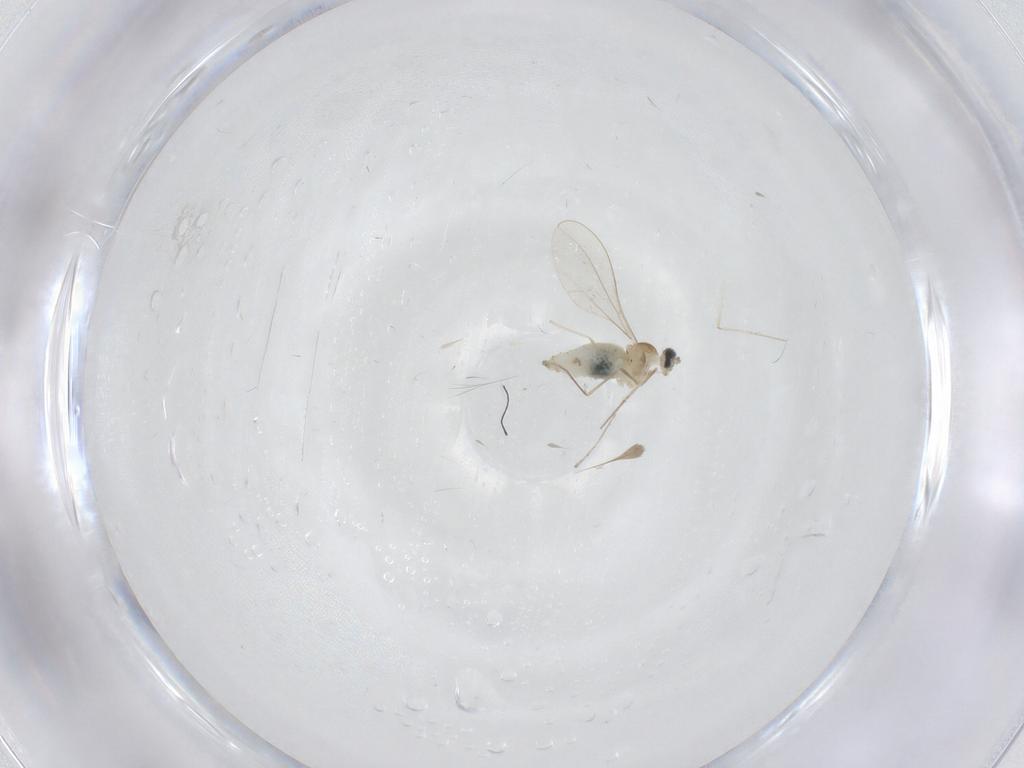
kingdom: Animalia
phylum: Arthropoda
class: Insecta
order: Diptera
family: Cecidomyiidae
